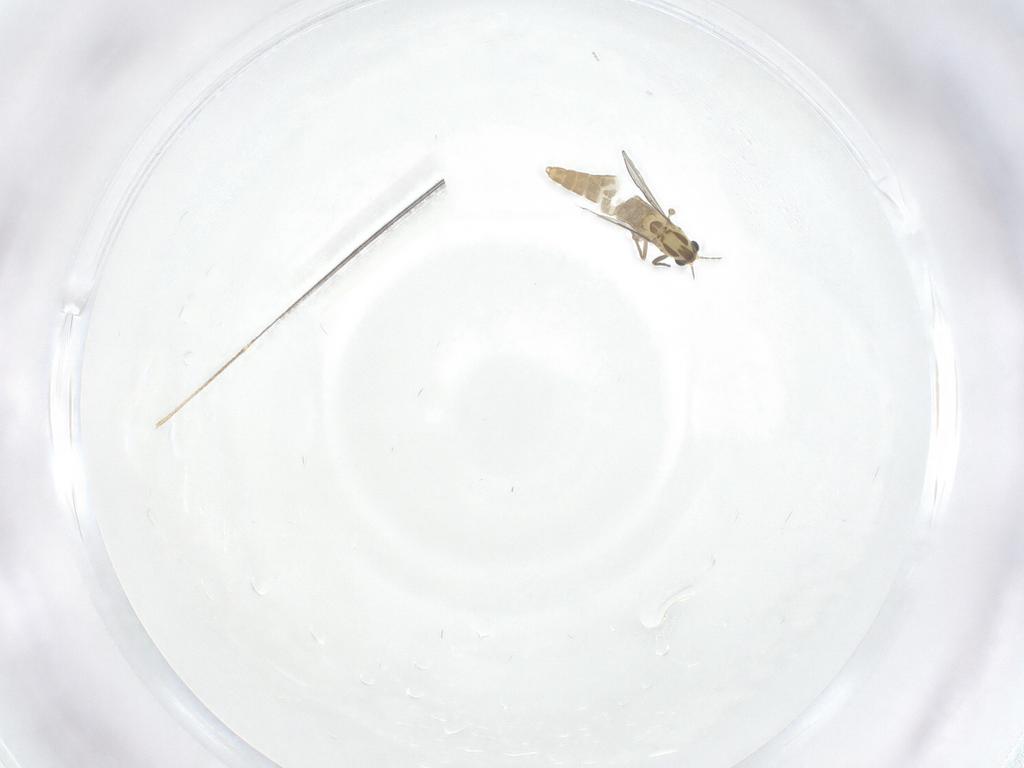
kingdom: Animalia
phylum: Arthropoda
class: Insecta
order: Diptera
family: Chironomidae
